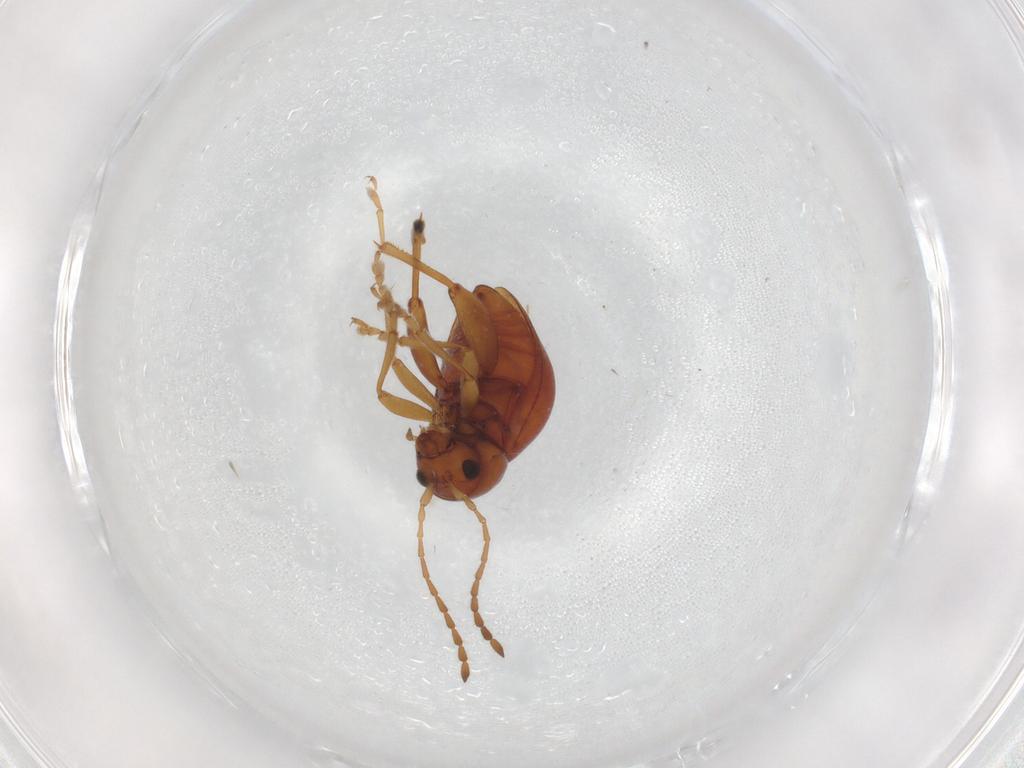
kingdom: Animalia
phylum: Arthropoda
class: Insecta
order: Coleoptera
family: Chrysomelidae
